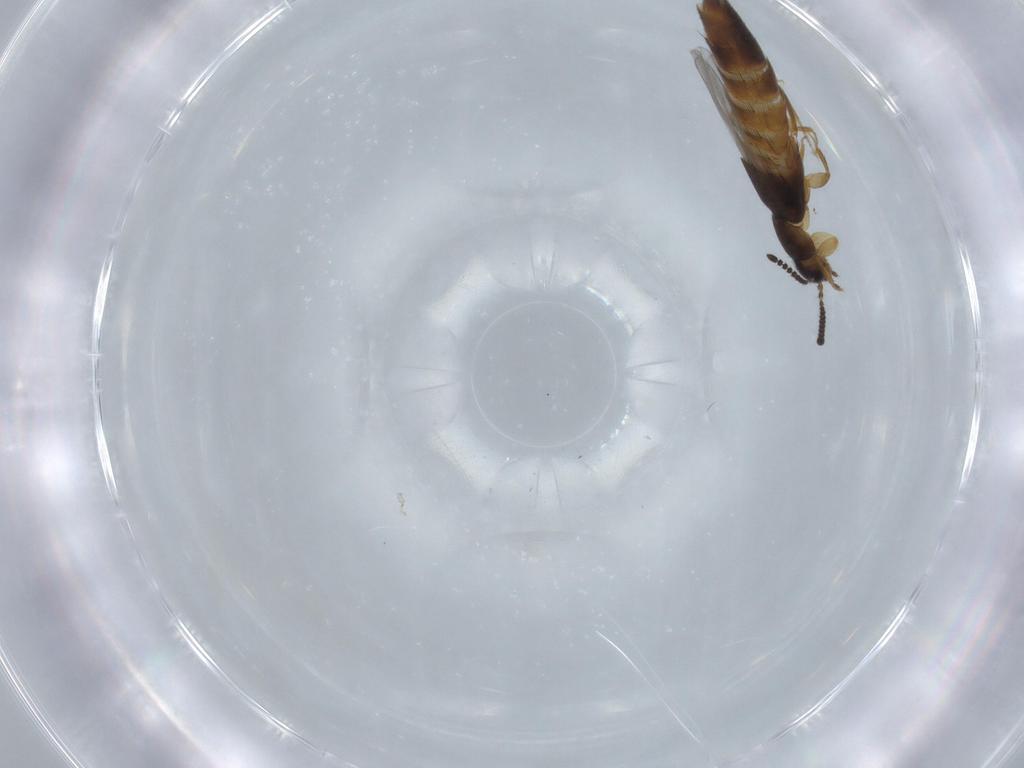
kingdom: Animalia
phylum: Arthropoda
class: Insecta
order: Coleoptera
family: Staphylinidae
